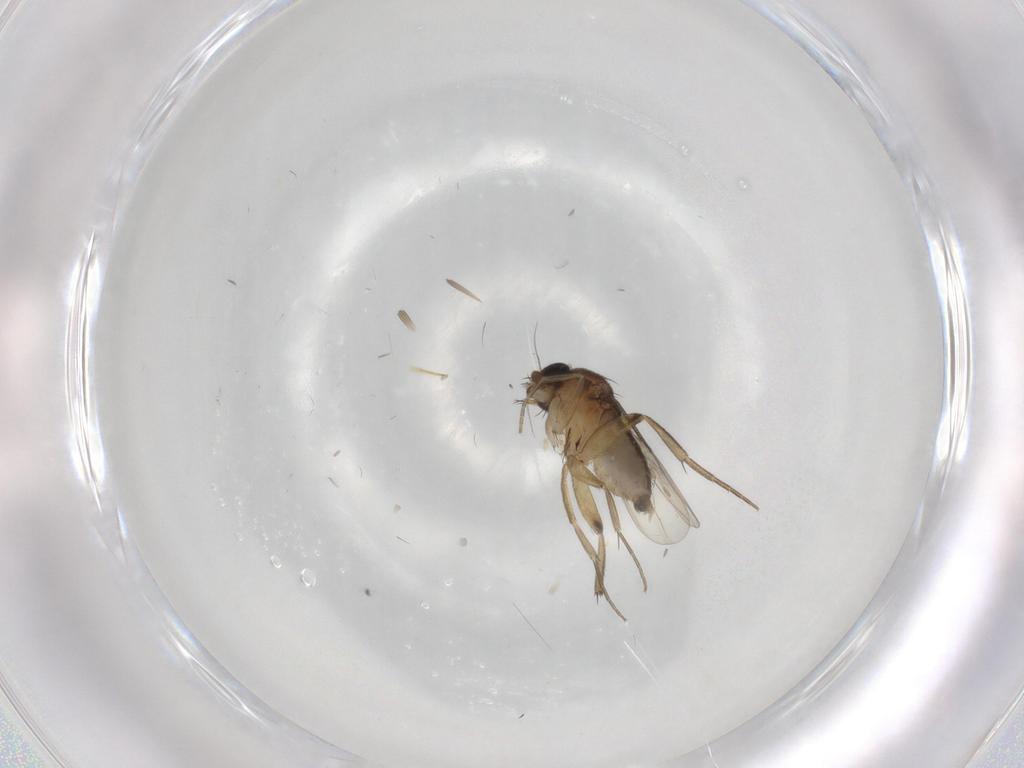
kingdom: Animalia
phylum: Arthropoda
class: Insecta
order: Diptera
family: Phoridae
